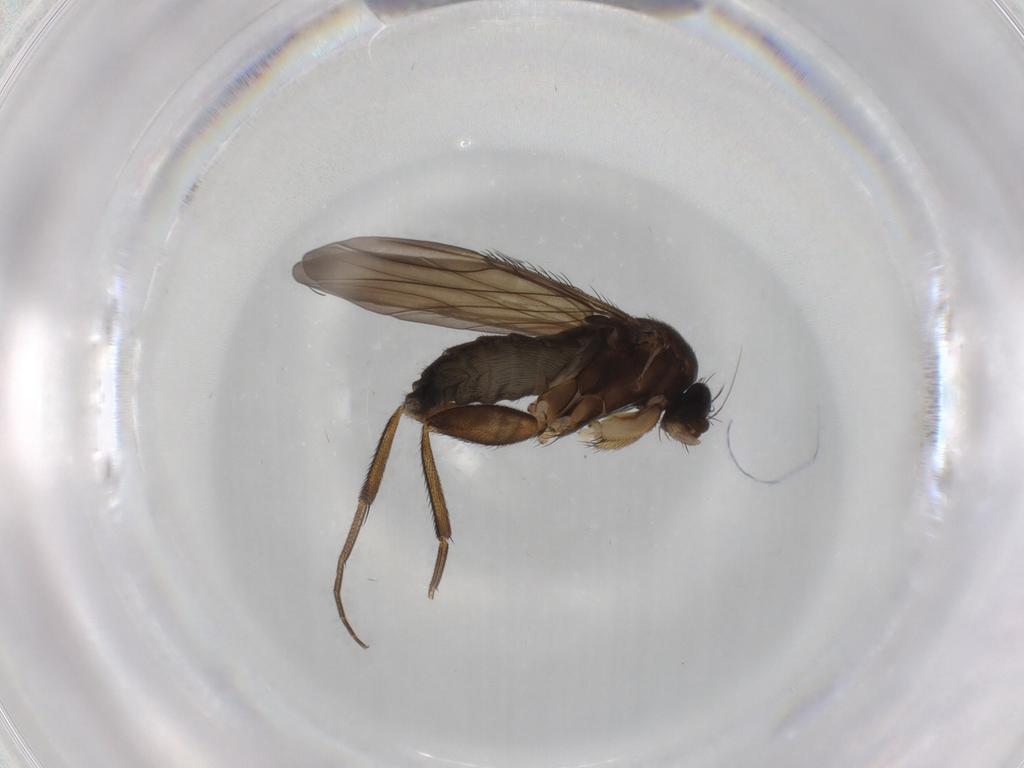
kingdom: Animalia
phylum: Arthropoda
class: Insecta
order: Diptera
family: Phoridae
